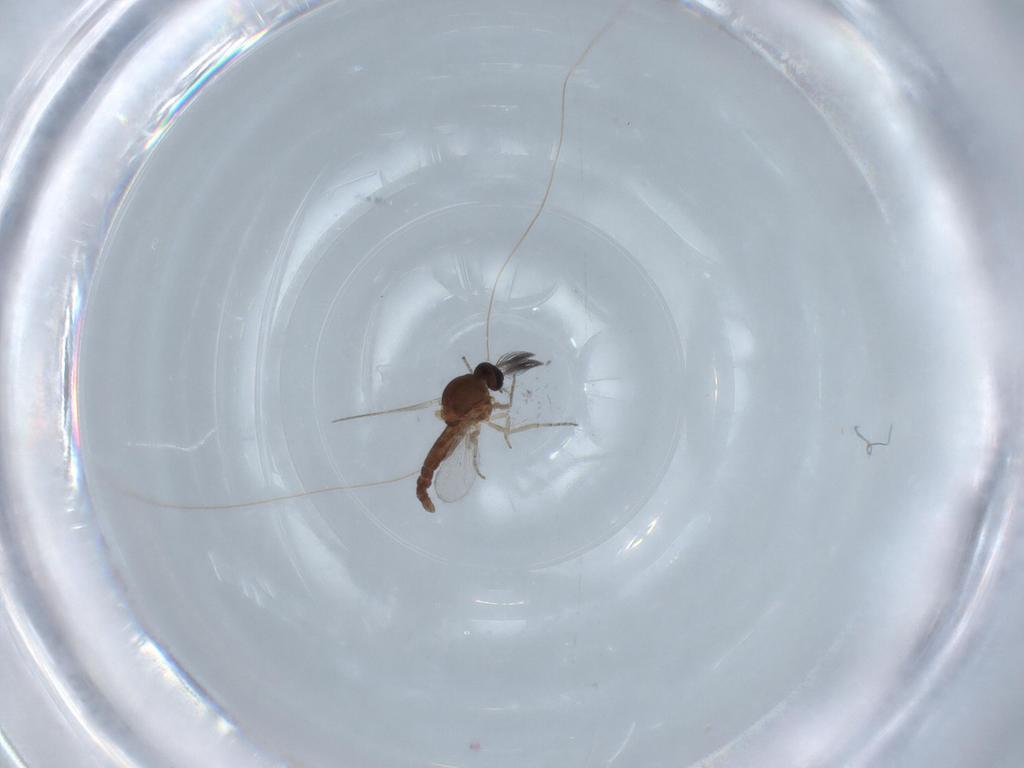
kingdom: Animalia
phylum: Arthropoda
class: Insecta
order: Diptera
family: Ceratopogonidae
